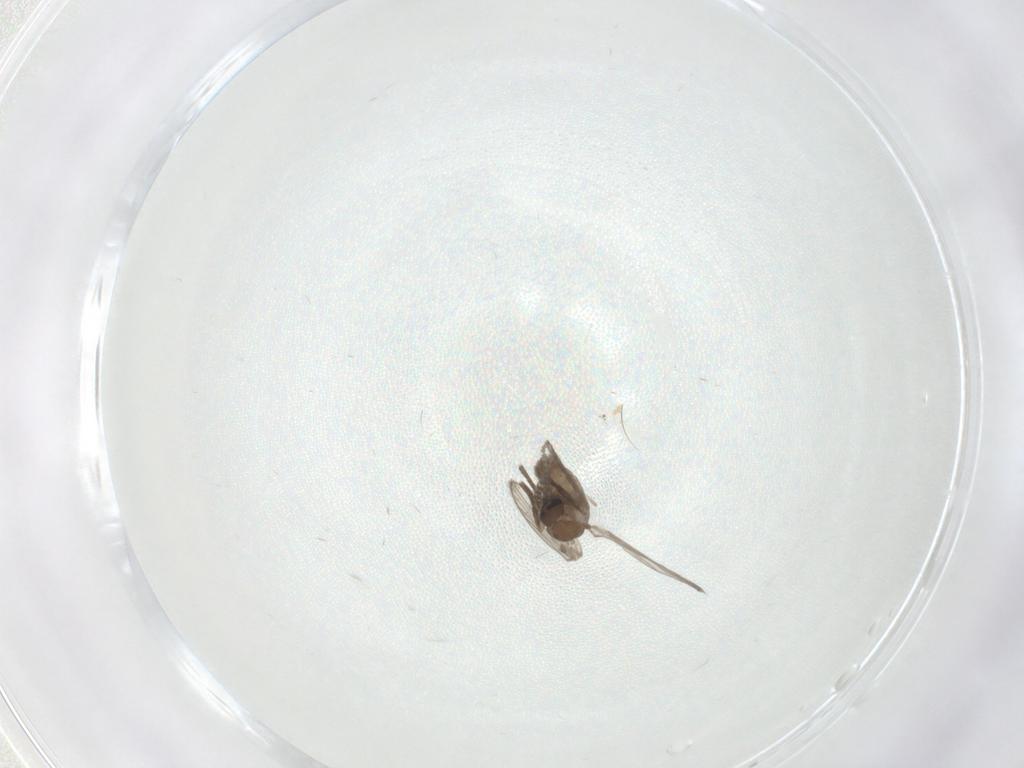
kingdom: Animalia
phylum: Arthropoda
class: Insecta
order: Diptera
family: Psychodidae
